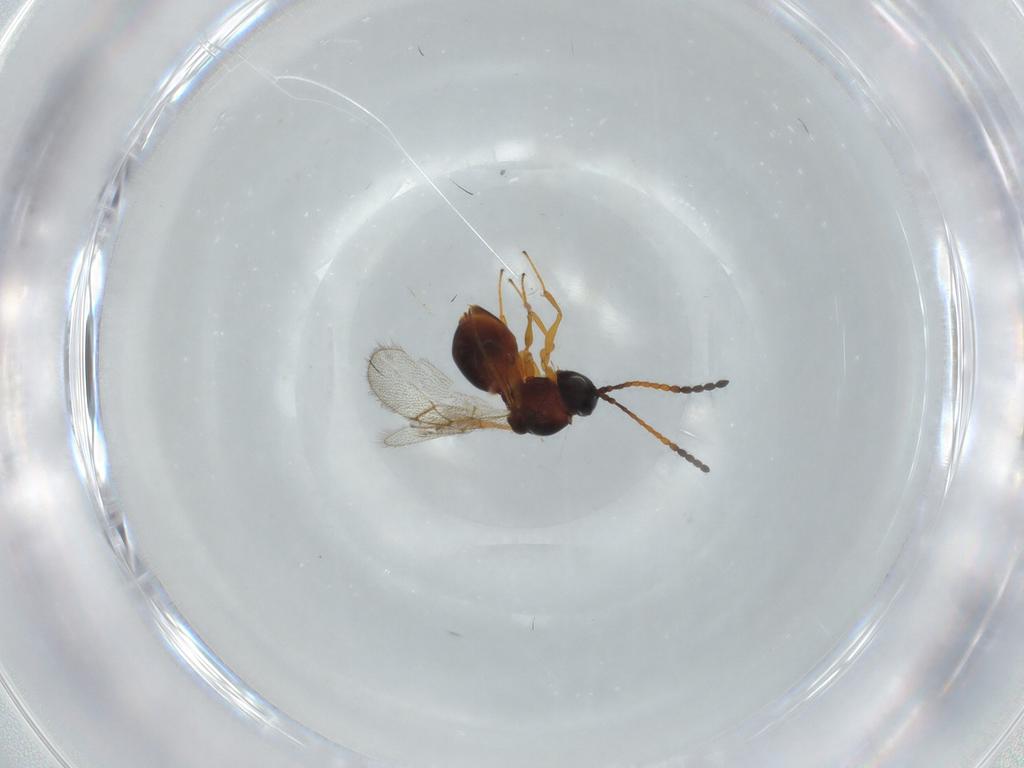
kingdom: Animalia
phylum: Arthropoda
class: Insecta
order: Hymenoptera
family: Figitidae
